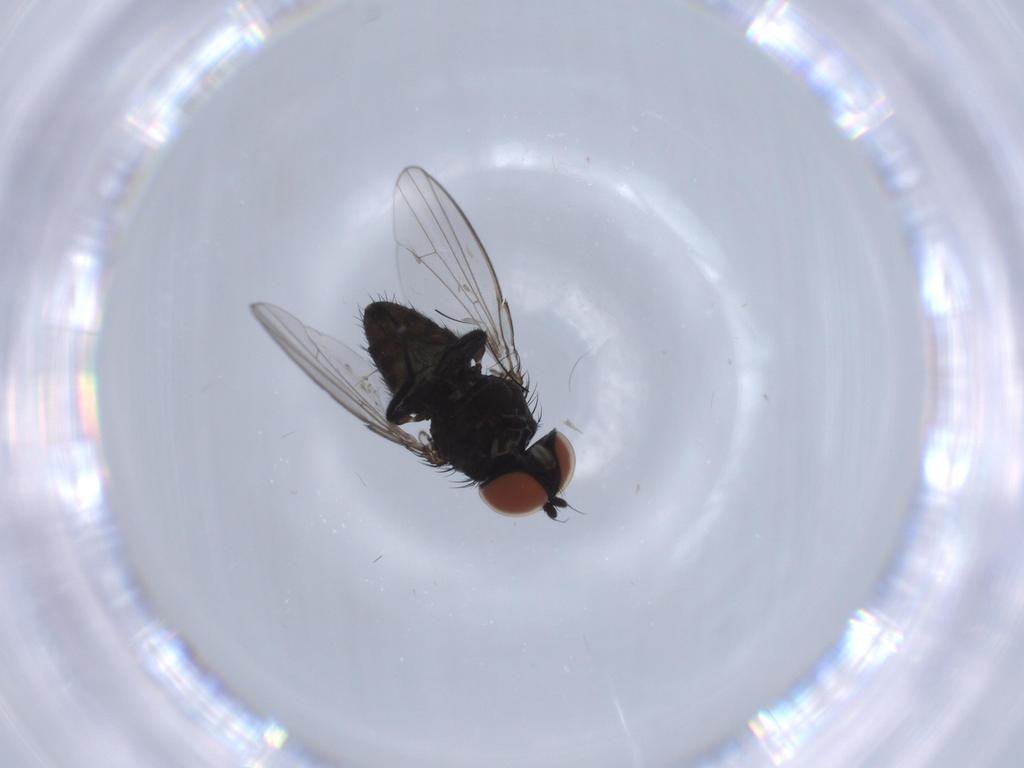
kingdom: Animalia
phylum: Arthropoda
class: Insecta
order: Diptera
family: Milichiidae
